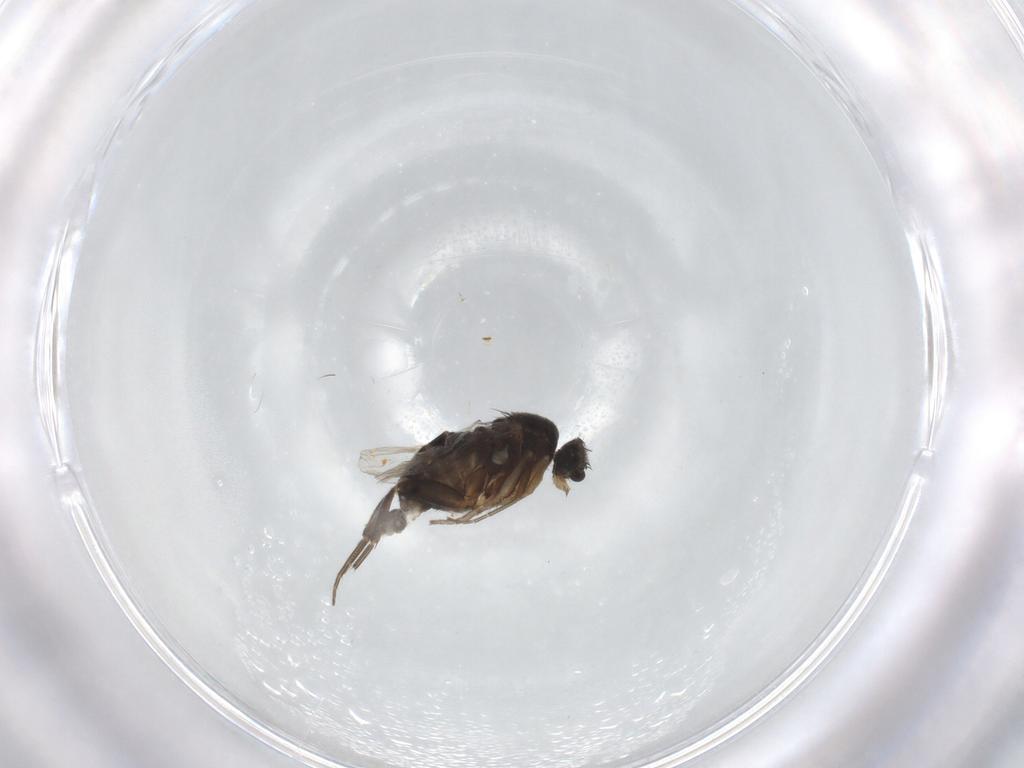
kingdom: Animalia
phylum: Arthropoda
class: Insecta
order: Diptera
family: Phoridae
